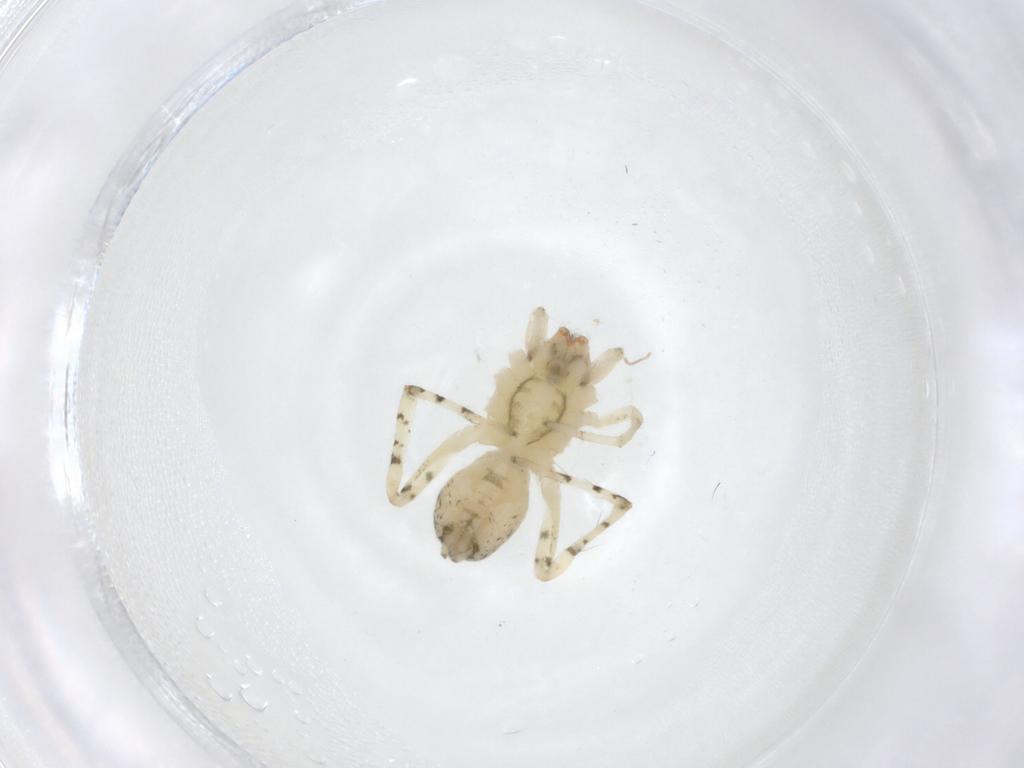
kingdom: Animalia
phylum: Arthropoda
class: Arachnida
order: Araneae
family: Anyphaenidae
